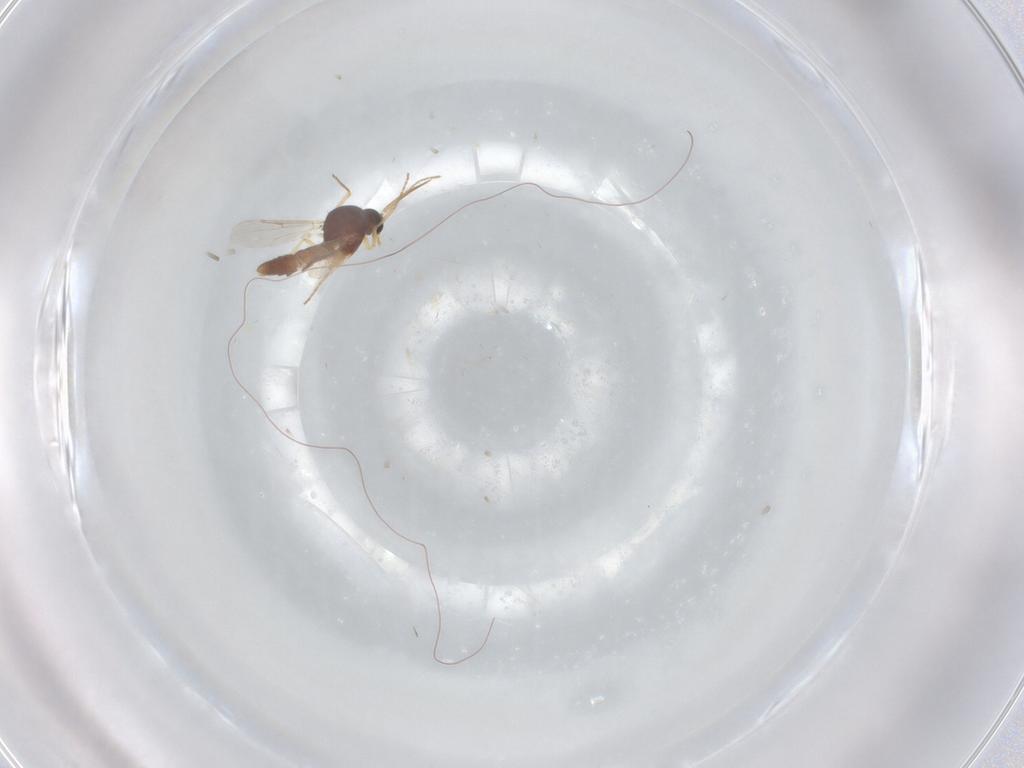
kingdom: Animalia
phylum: Arthropoda
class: Insecta
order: Diptera
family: Ceratopogonidae
